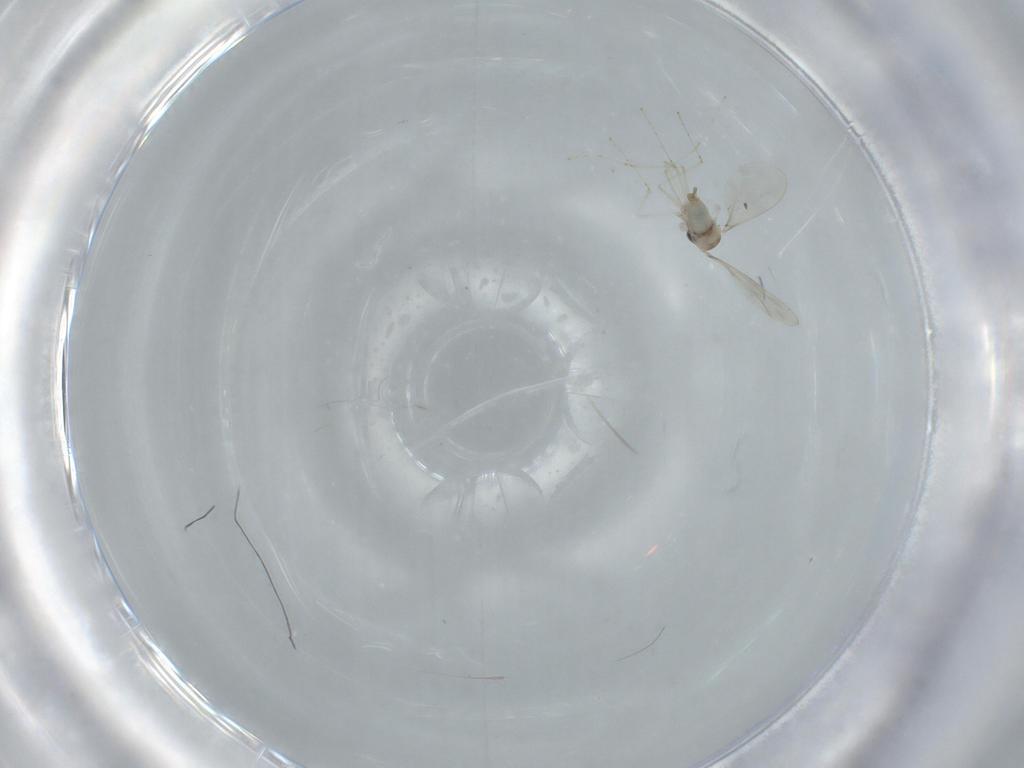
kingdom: Animalia
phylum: Arthropoda
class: Insecta
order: Diptera
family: Cecidomyiidae
